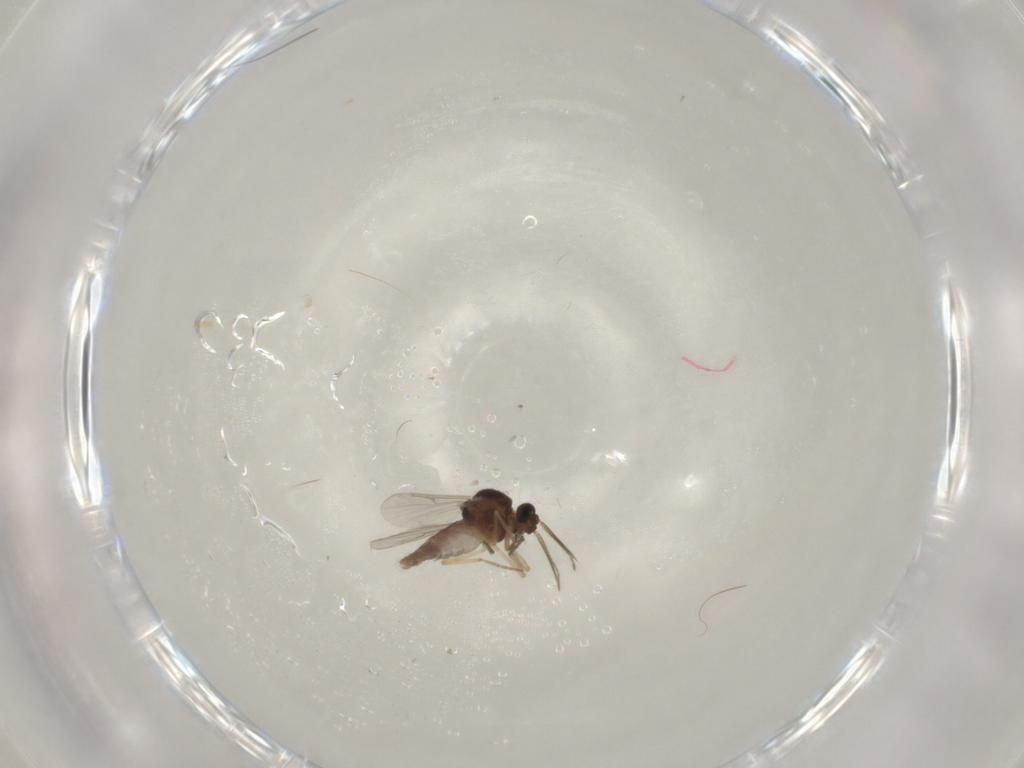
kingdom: Animalia
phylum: Arthropoda
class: Insecta
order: Diptera
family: Ceratopogonidae
